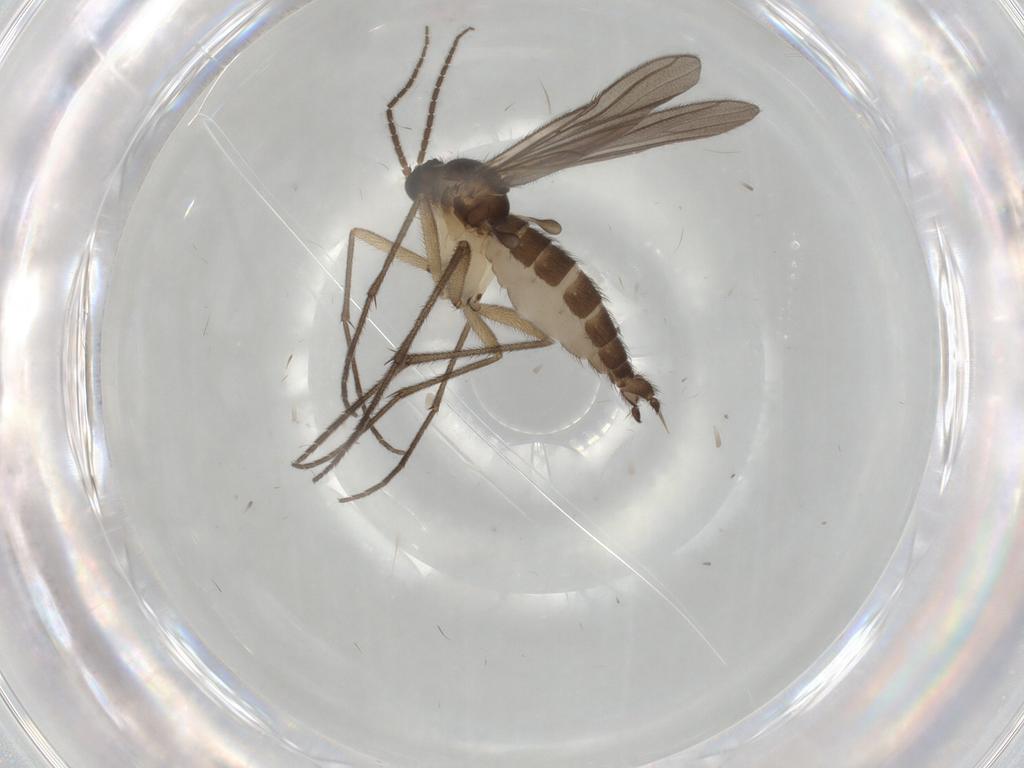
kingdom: Animalia
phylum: Arthropoda
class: Insecta
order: Diptera
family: Sciaridae
